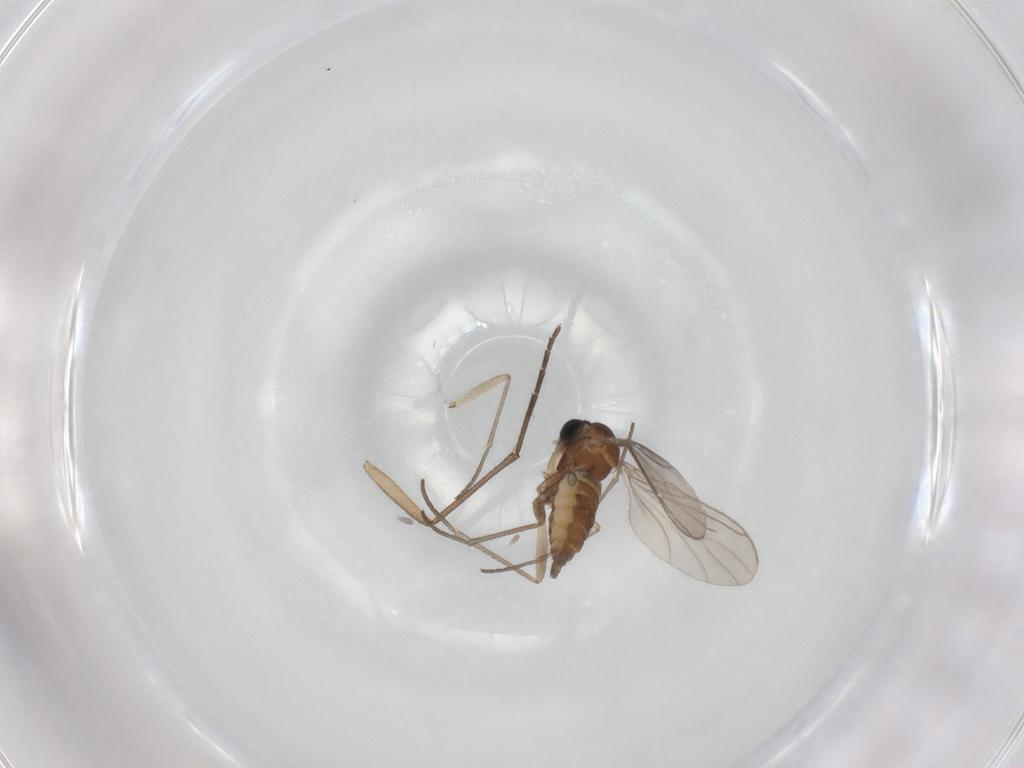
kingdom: Animalia
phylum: Arthropoda
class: Insecta
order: Diptera
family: Sciaridae
